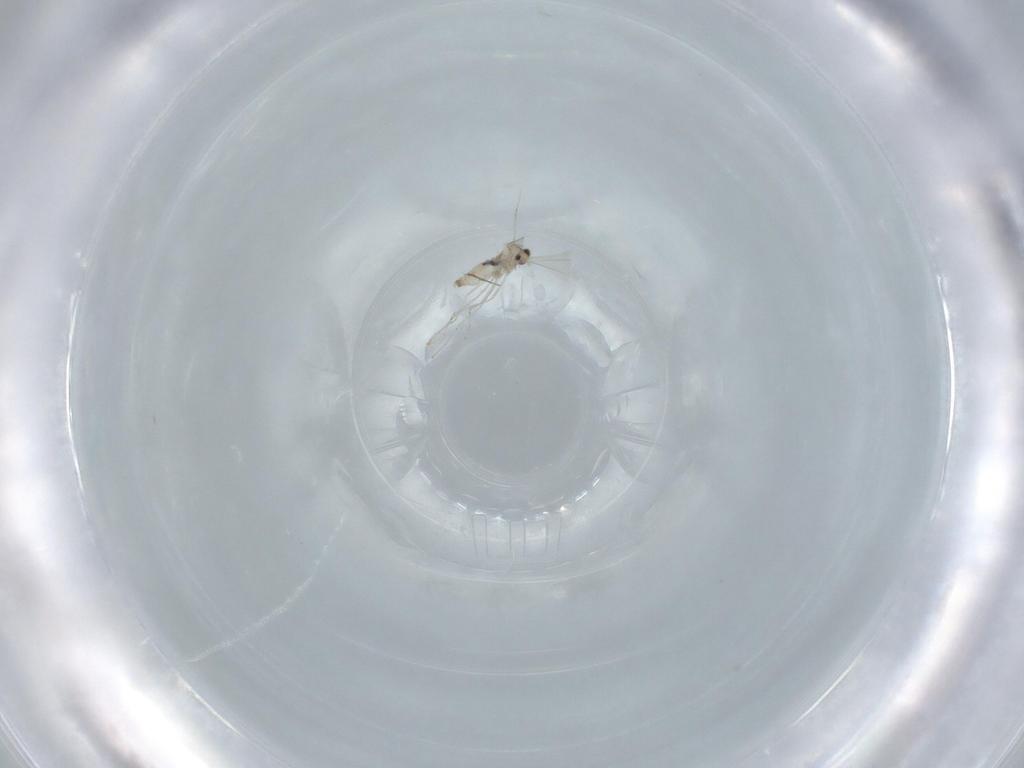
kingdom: Animalia
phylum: Arthropoda
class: Insecta
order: Diptera
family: Cecidomyiidae
